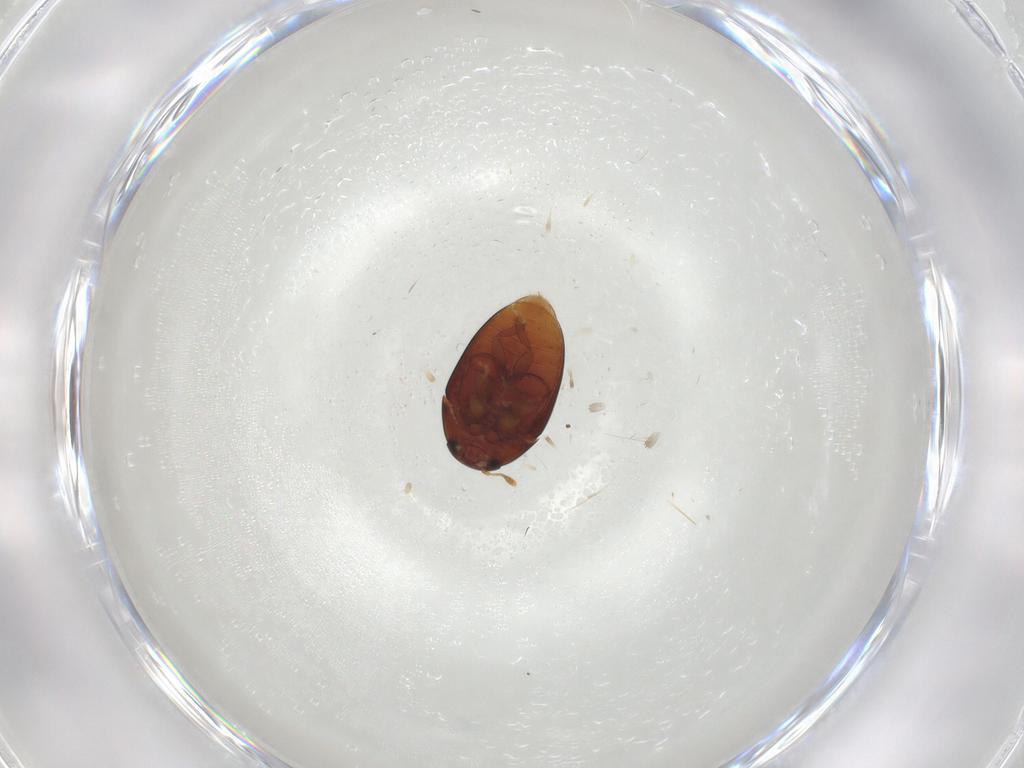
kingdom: Animalia
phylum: Arthropoda
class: Insecta
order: Coleoptera
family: Phalacridae
